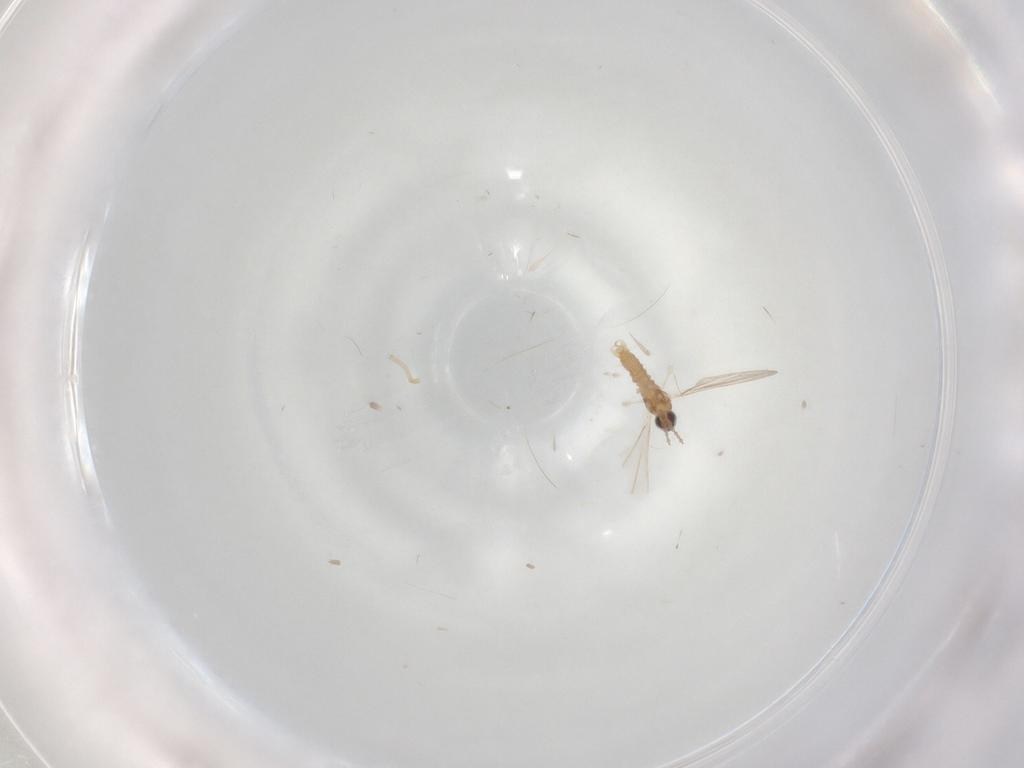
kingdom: Animalia
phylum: Arthropoda
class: Insecta
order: Diptera
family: Cecidomyiidae
